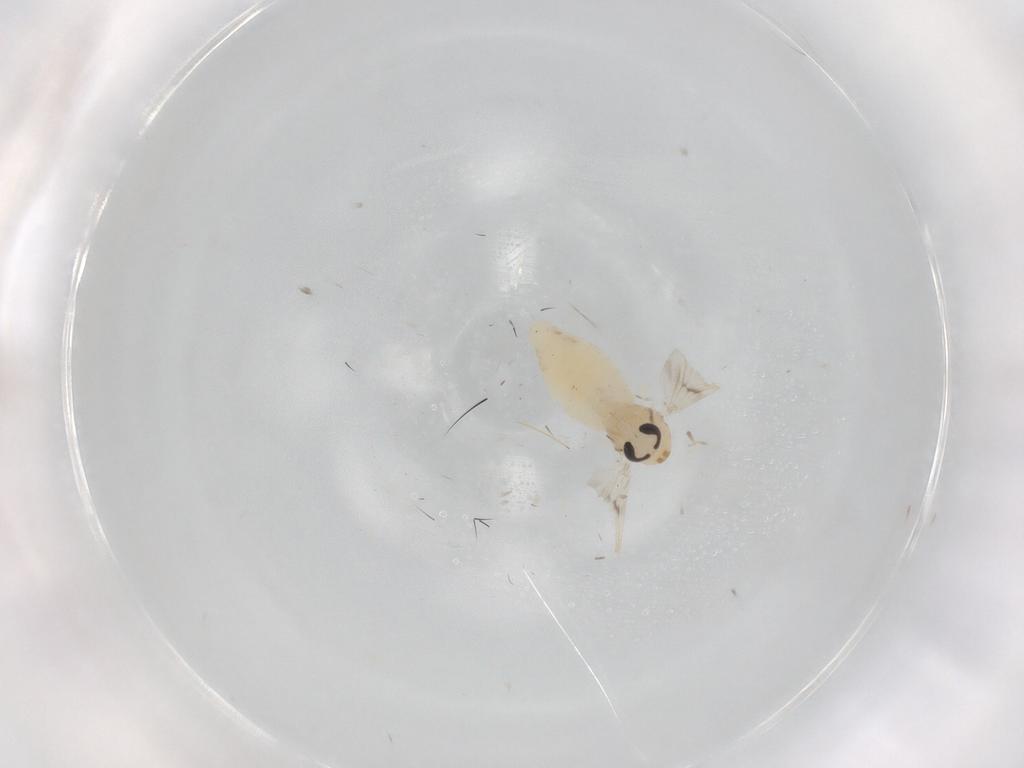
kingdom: Animalia
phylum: Arthropoda
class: Insecta
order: Diptera
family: Chironomidae
